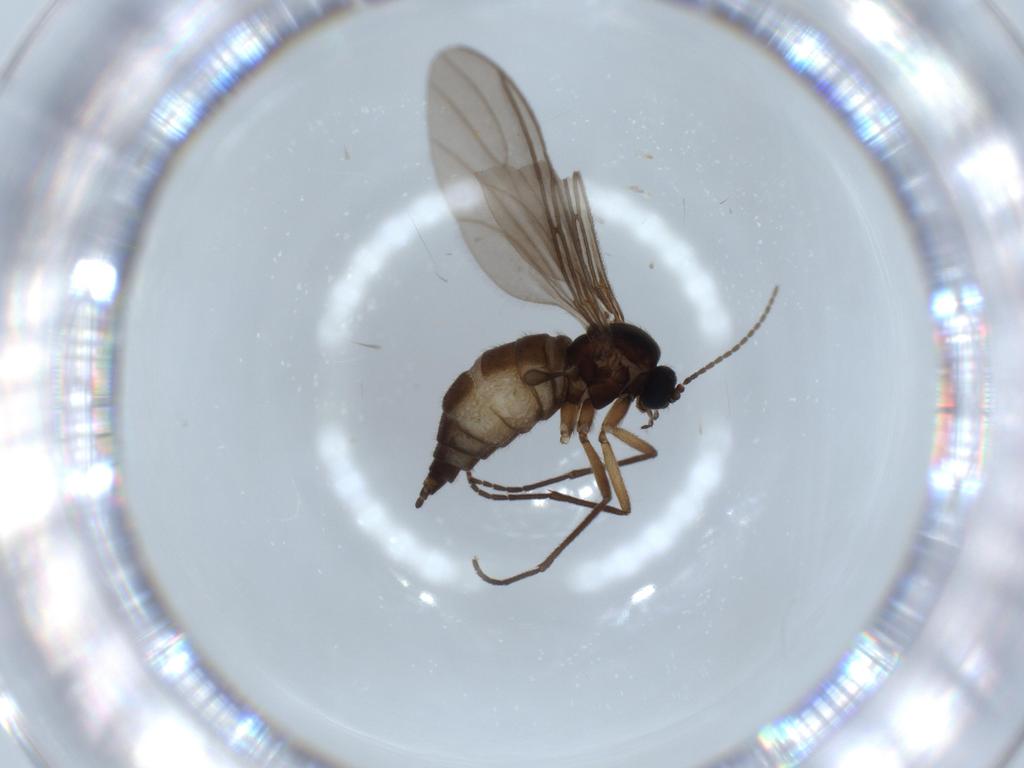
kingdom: Animalia
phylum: Arthropoda
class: Insecta
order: Diptera
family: Sciaridae
